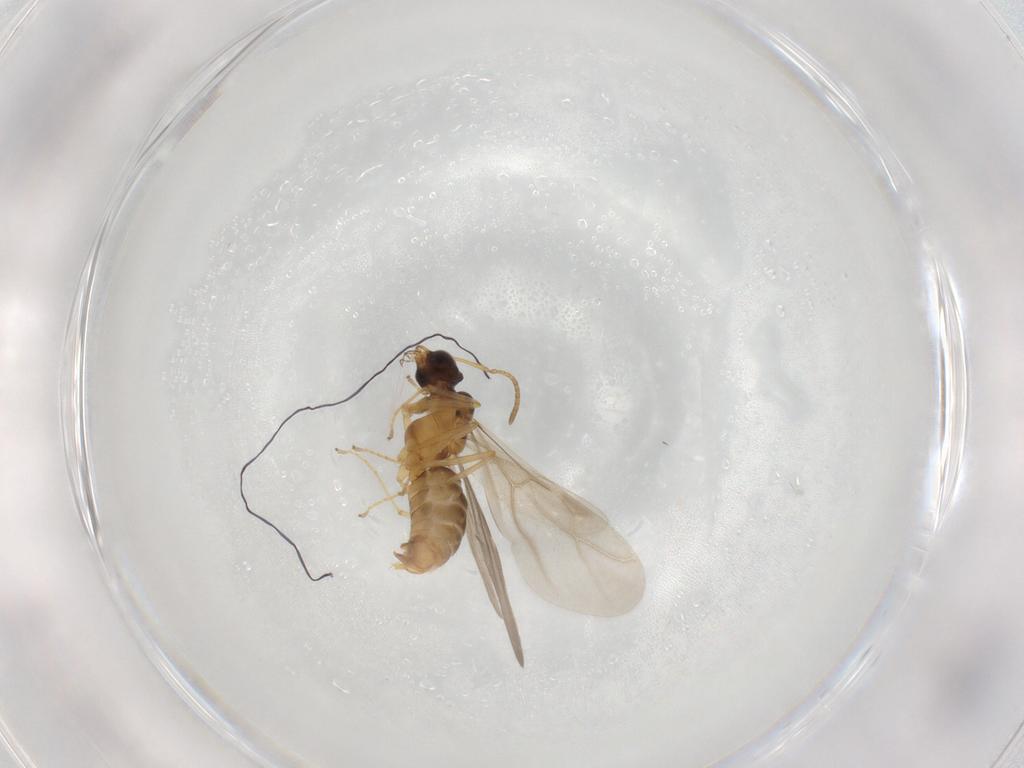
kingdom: Animalia
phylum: Arthropoda
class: Insecta
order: Hymenoptera
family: Formicidae
